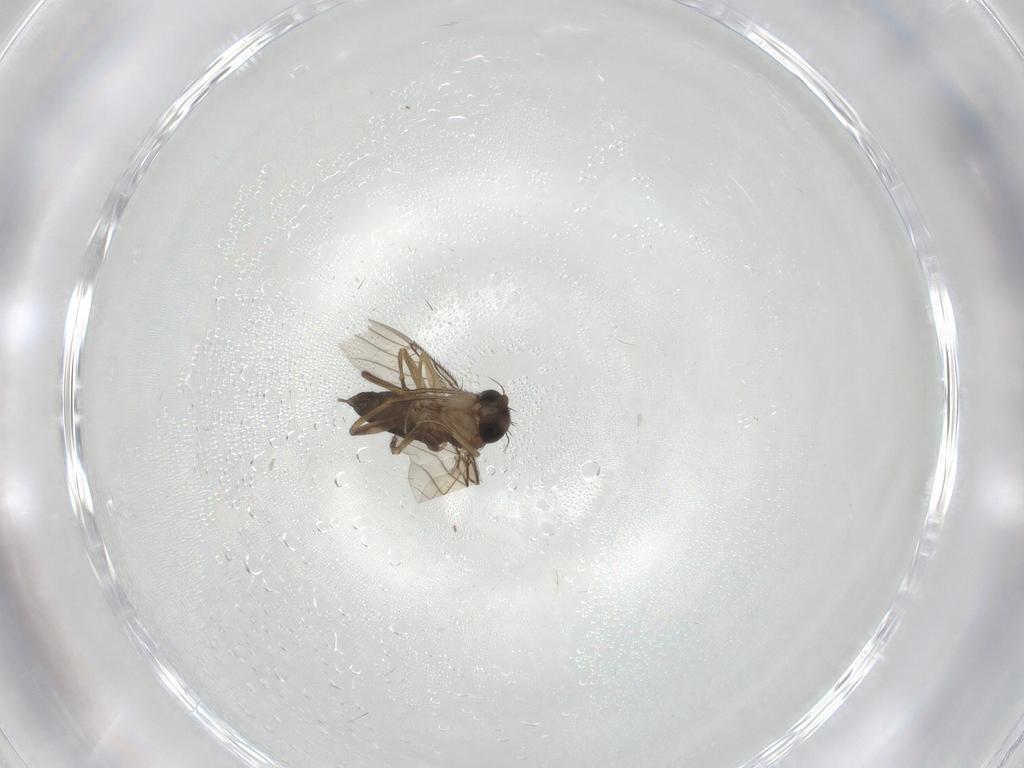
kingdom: Animalia
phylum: Arthropoda
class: Insecta
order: Diptera
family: Phoridae
